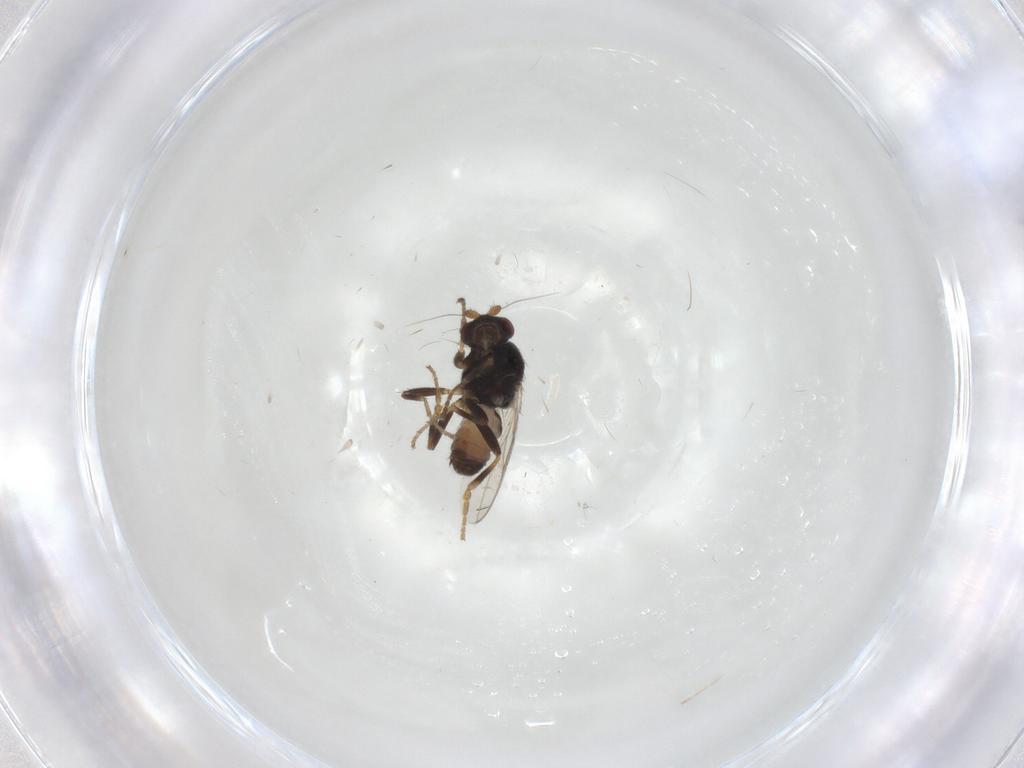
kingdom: Animalia
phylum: Arthropoda
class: Insecta
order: Diptera
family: Sphaeroceridae
